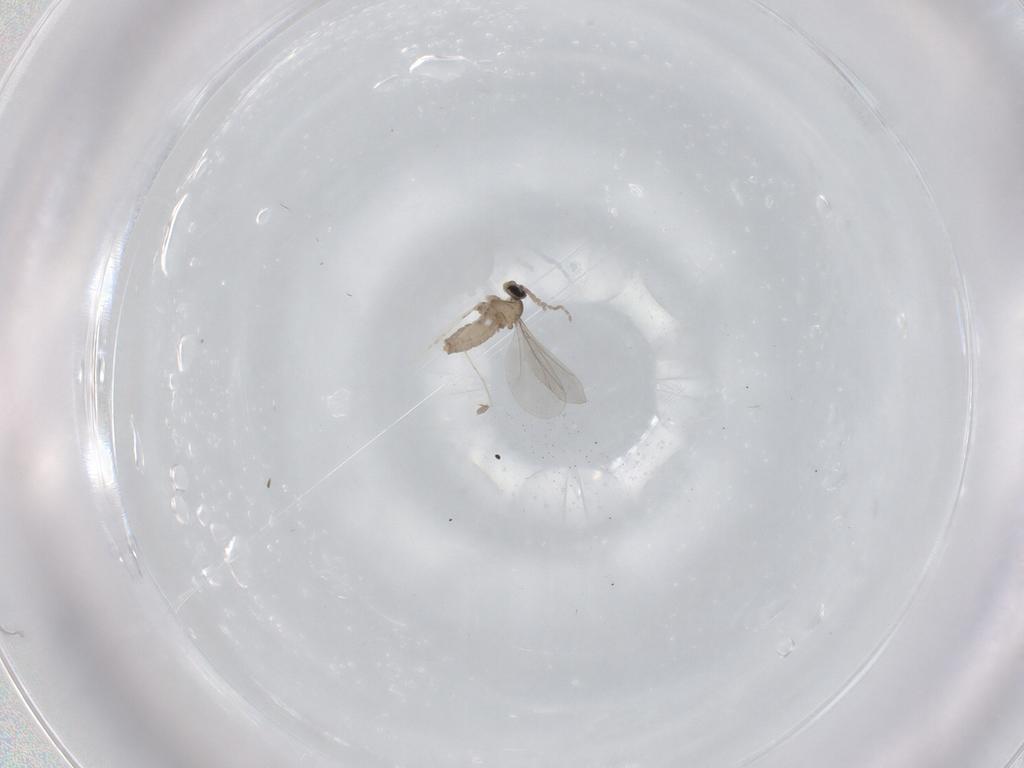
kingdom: Animalia
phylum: Arthropoda
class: Insecta
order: Diptera
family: Cecidomyiidae
